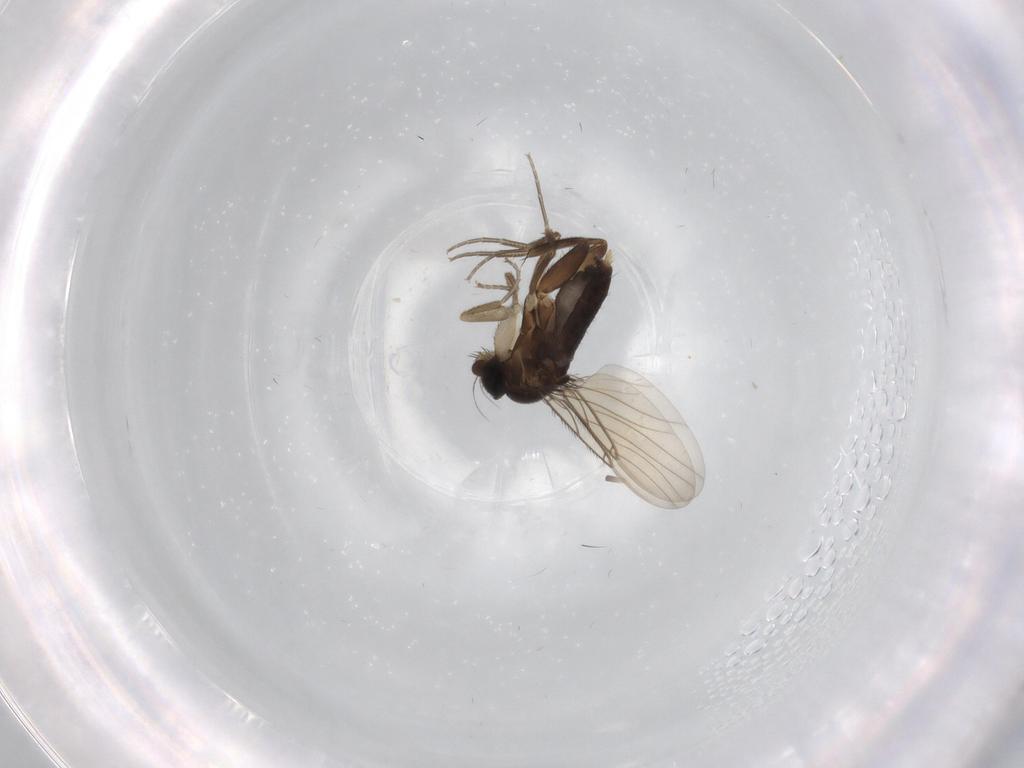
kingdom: Animalia
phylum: Arthropoda
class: Insecta
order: Diptera
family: Phoridae
